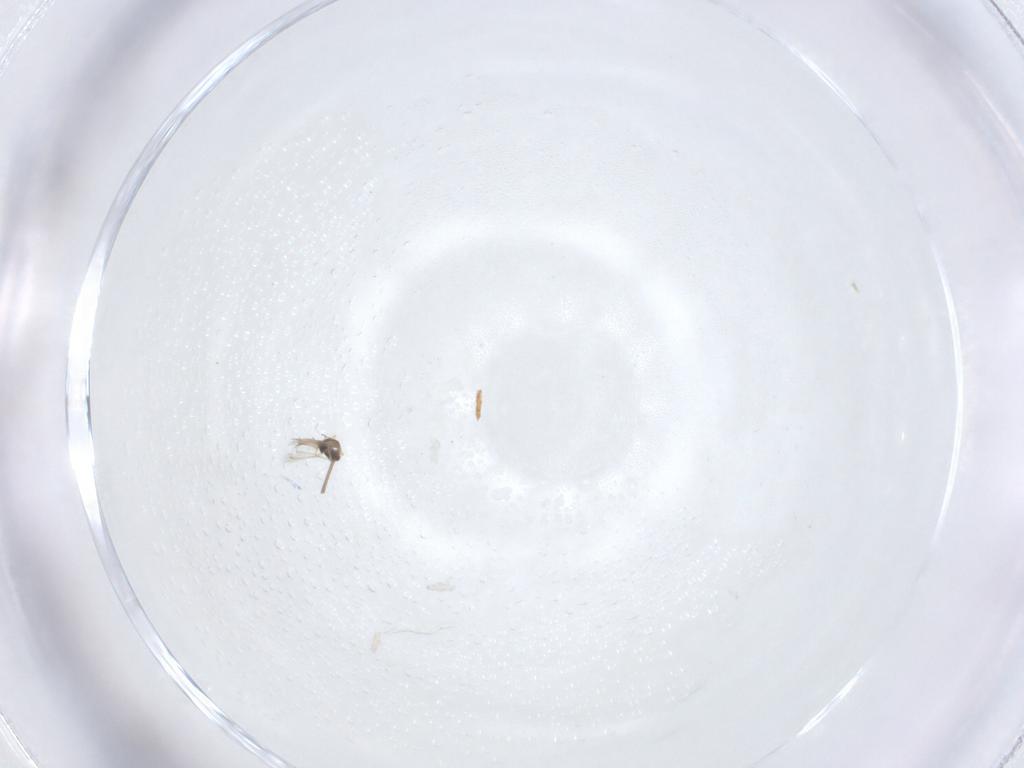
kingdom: Animalia
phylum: Arthropoda
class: Insecta
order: Diptera
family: Chironomidae
